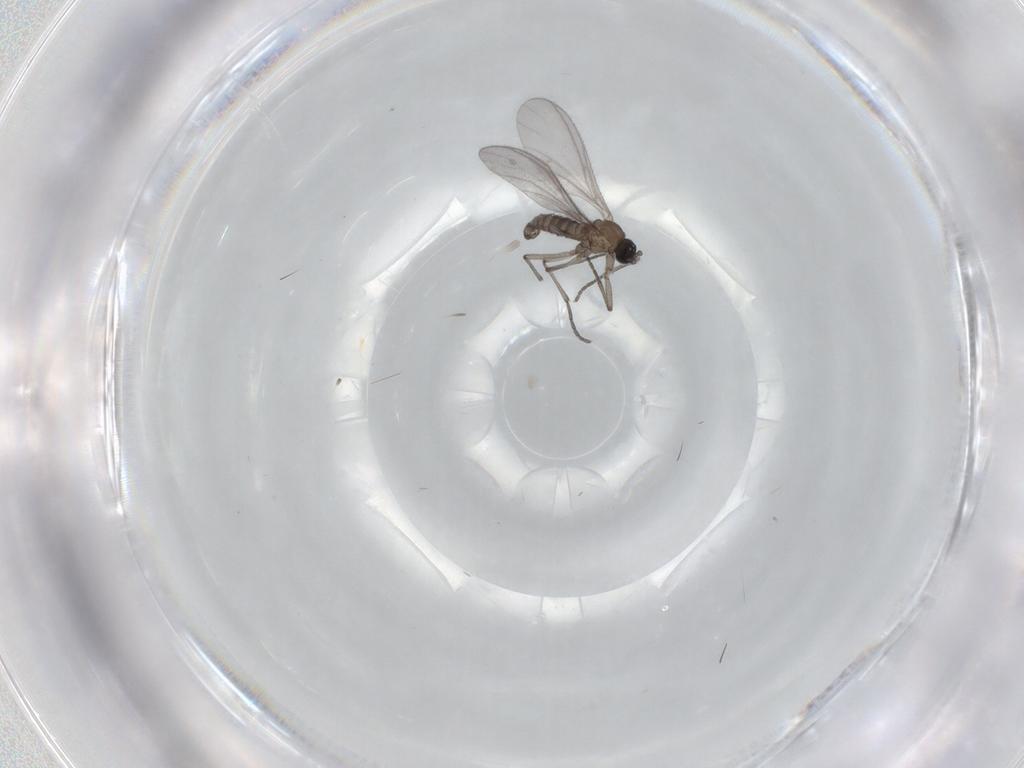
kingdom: Animalia
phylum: Arthropoda
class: Insecta
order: Diptera
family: Sciaridae
